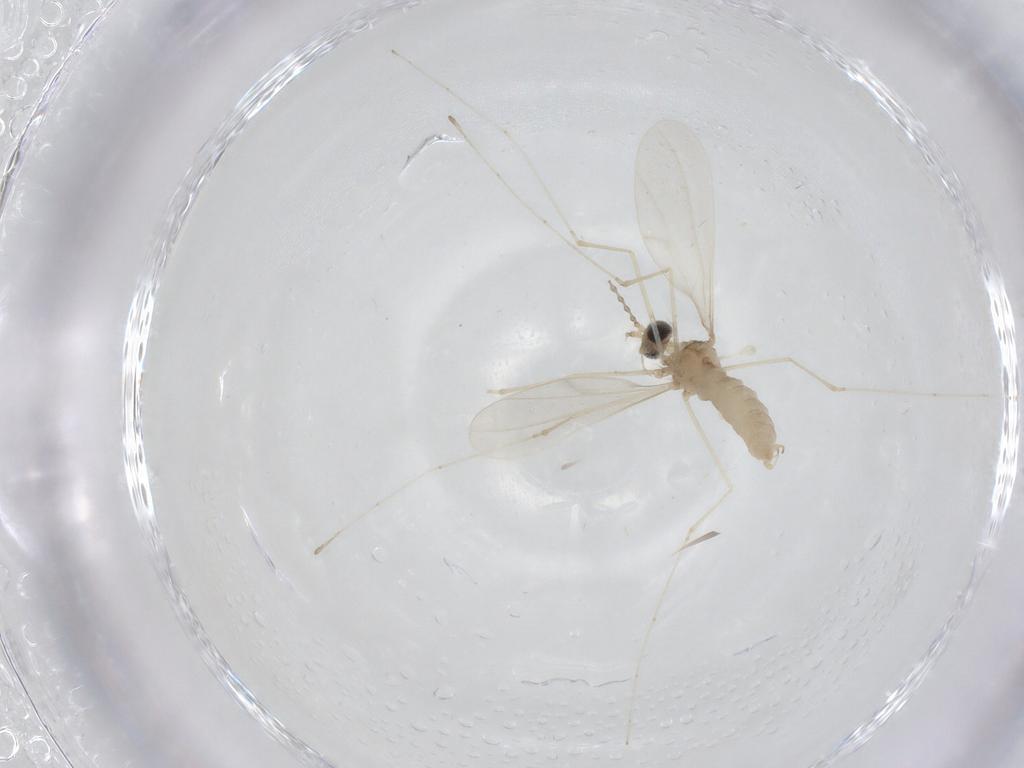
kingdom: Animalia
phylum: Arthropoda
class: Insecta
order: Diptera
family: Cecidomyiidae
